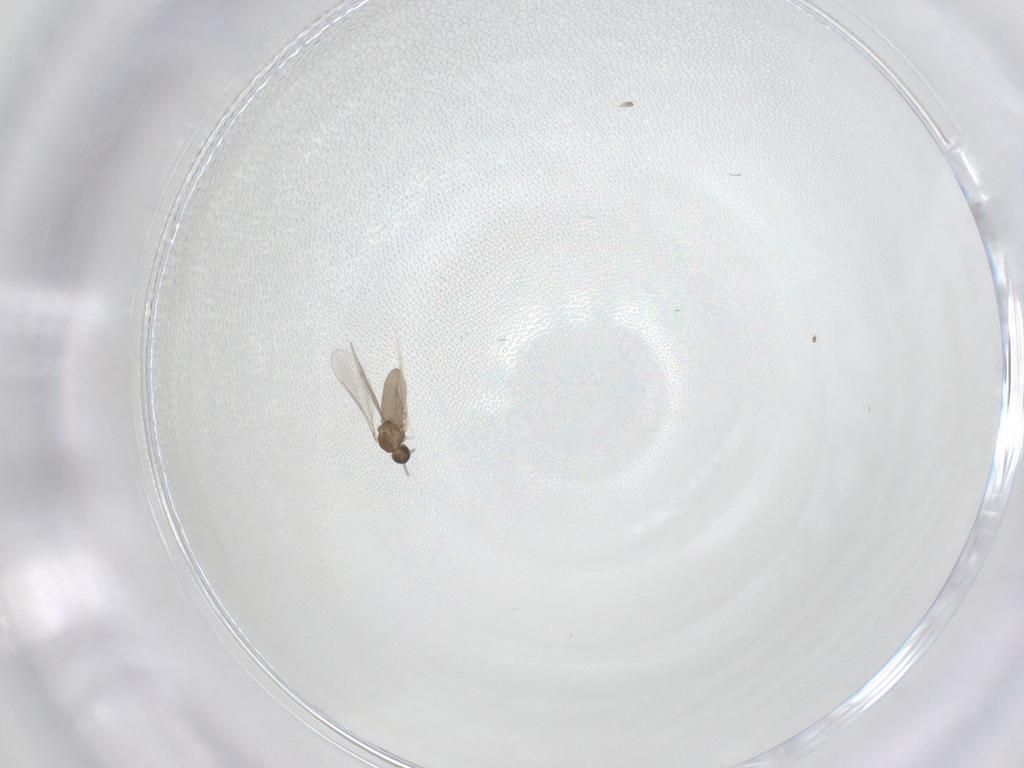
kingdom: Animalia
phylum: Arthropoda
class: Insecta
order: Diptera
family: Cecidomyiidae
